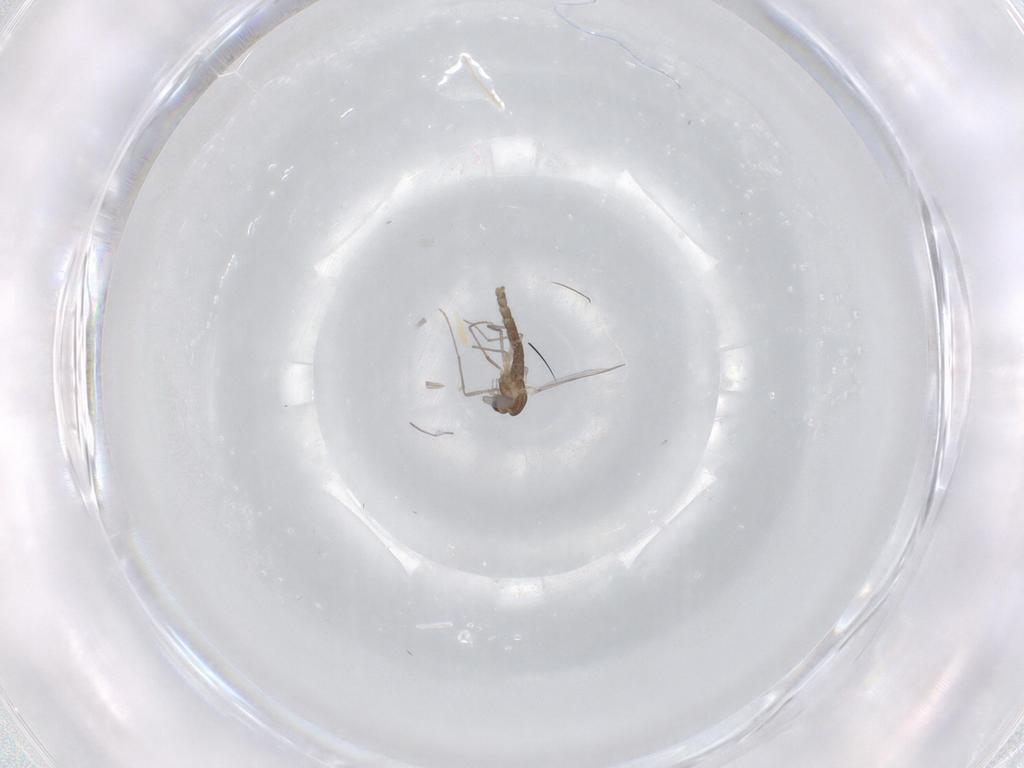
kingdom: Animalia
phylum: Arthropoda
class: Insecta
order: Diptera
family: Chironomidae
